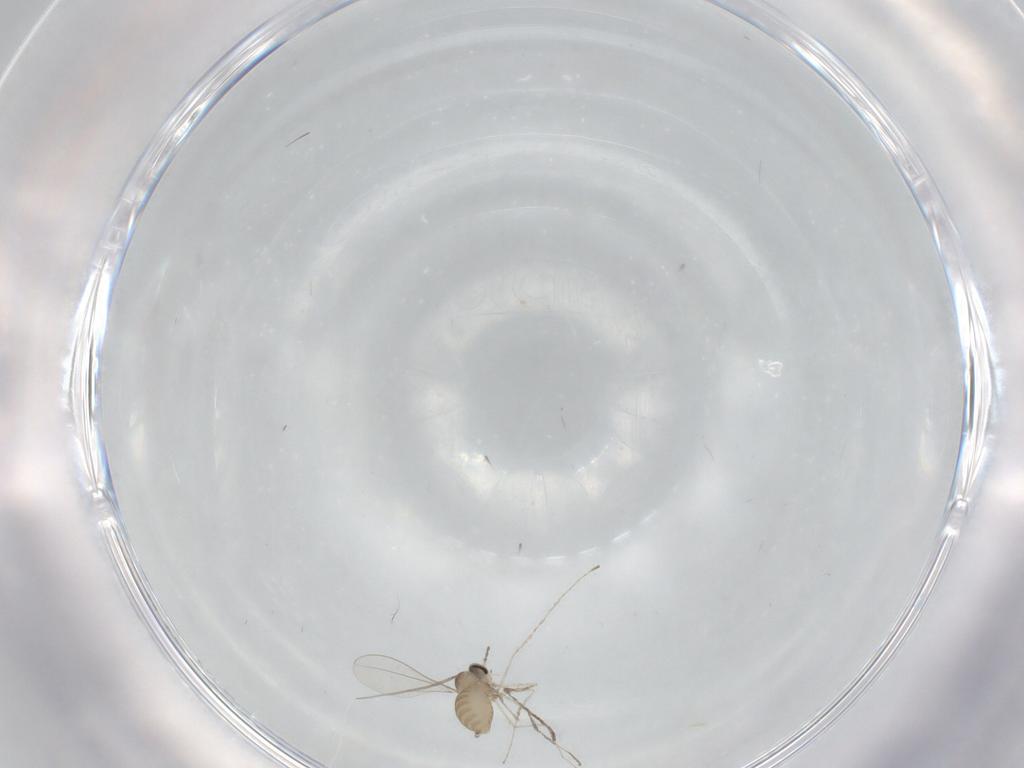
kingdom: Animalia
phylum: Arthropoda
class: Insecta
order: Diptera
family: Cecidomyiidae
